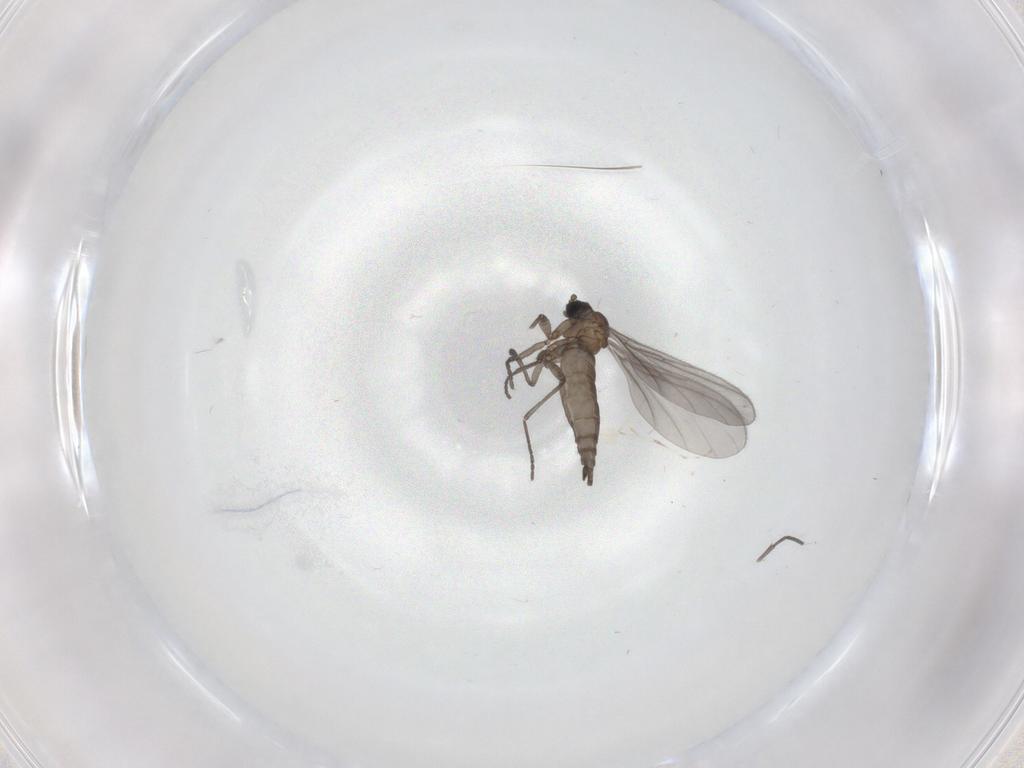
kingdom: Animalia
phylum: Arthropoda
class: Insecta
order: Diptera
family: Sciaridae
